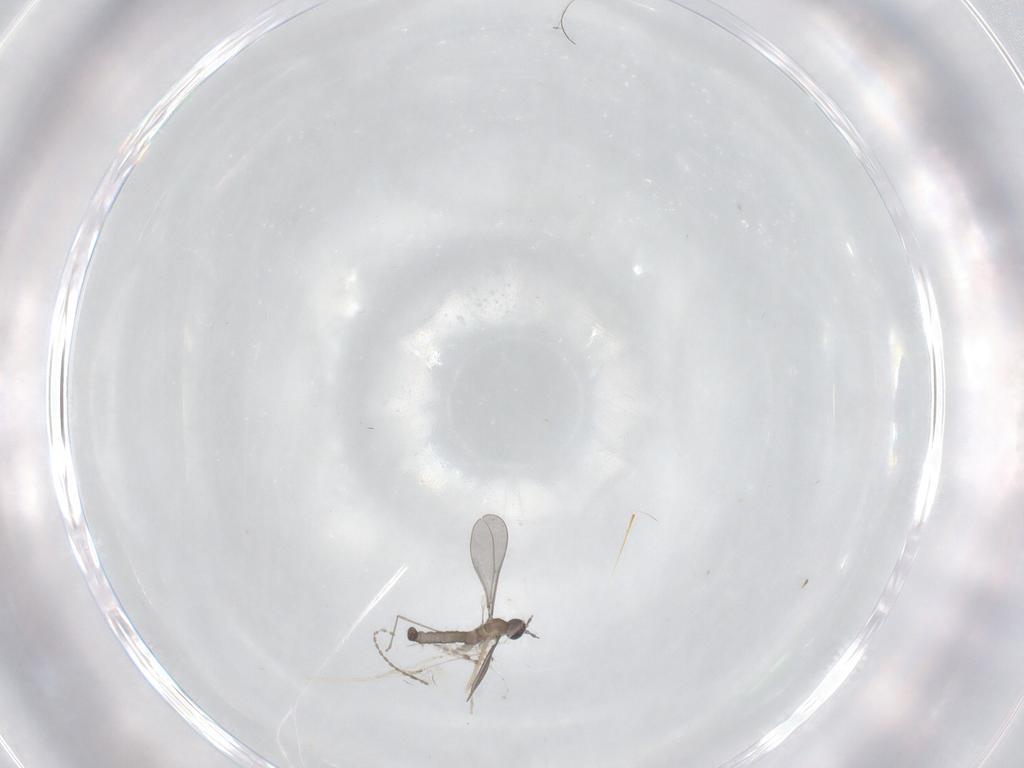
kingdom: Animalia
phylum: Arthropoda
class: Insecta
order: Diptera
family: Cecidomyiidae
